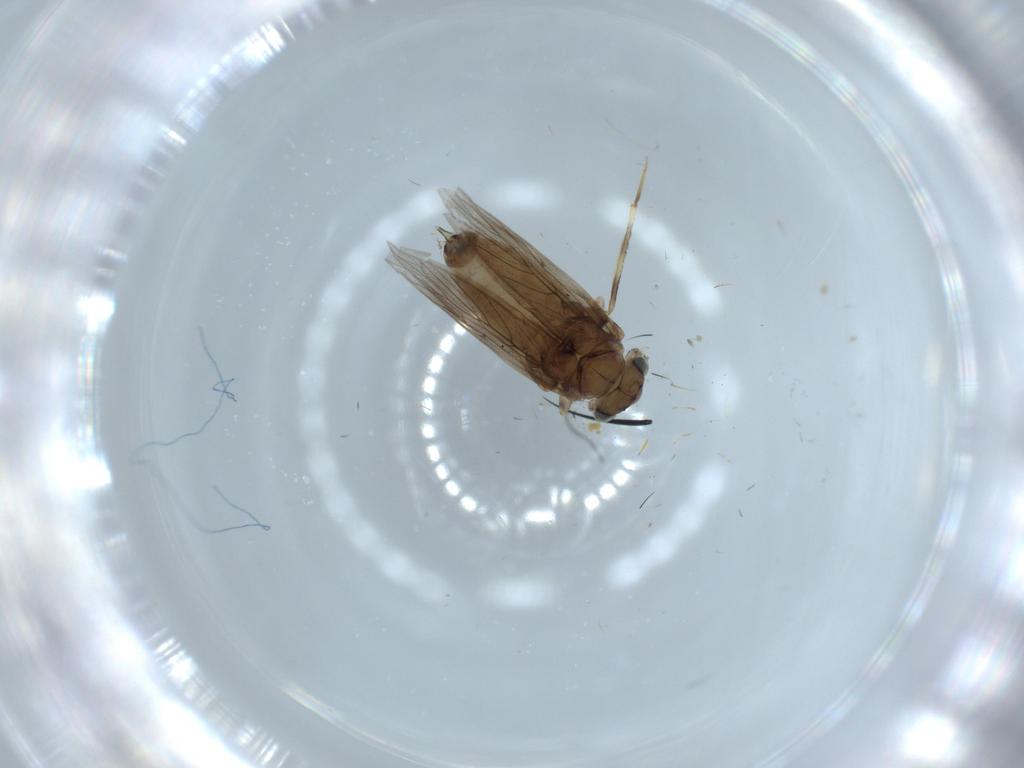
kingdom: Animalia
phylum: Arthropoda
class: Insecta
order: Psocodea
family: Lepidopsocidae
